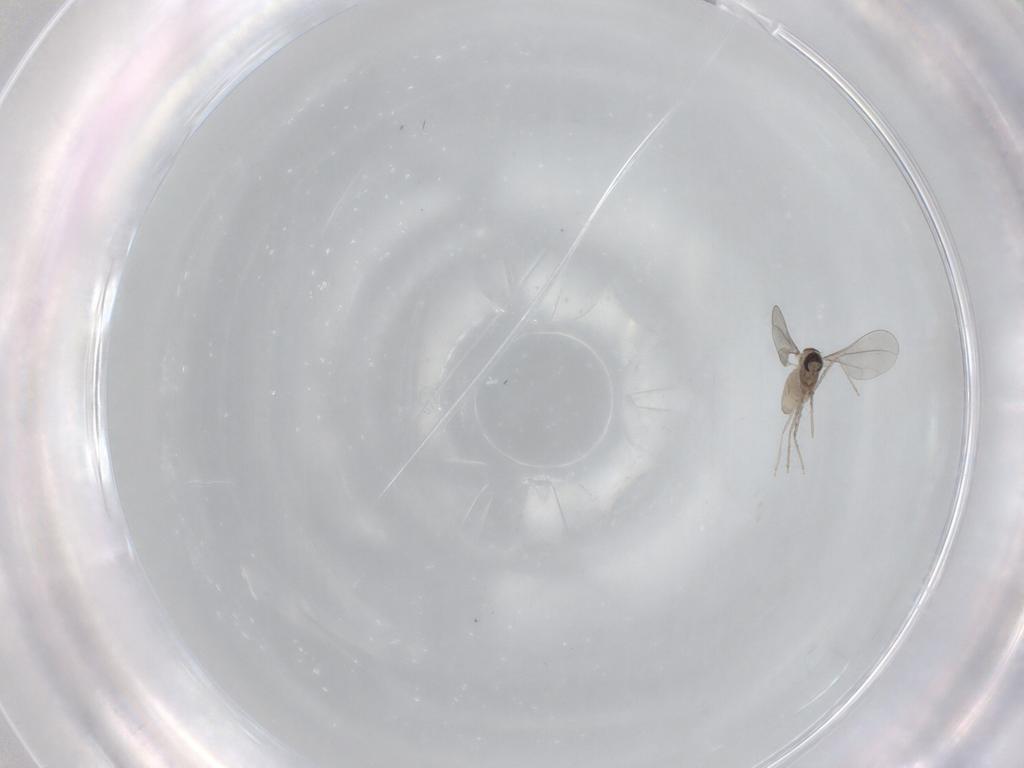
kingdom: Animalia
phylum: Arthropoda
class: Insecta
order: Diptera
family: Cecidomyiidae
